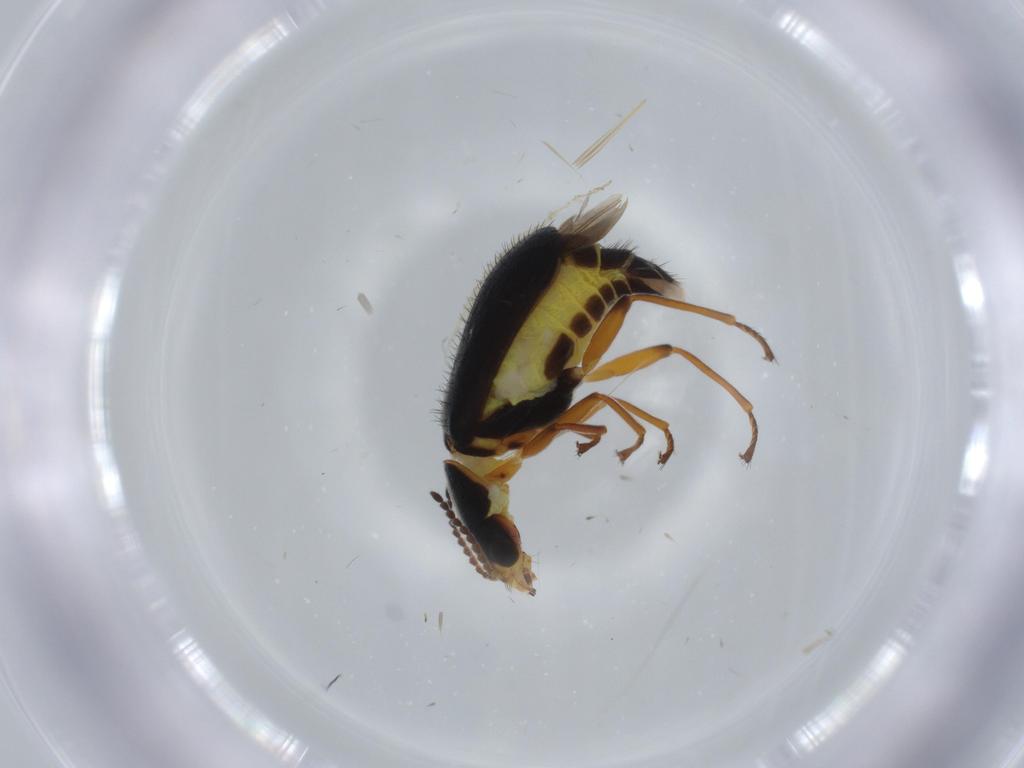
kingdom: Animalia
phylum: Arthropoda
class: Insecta
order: Coleoptera
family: Melyridae
